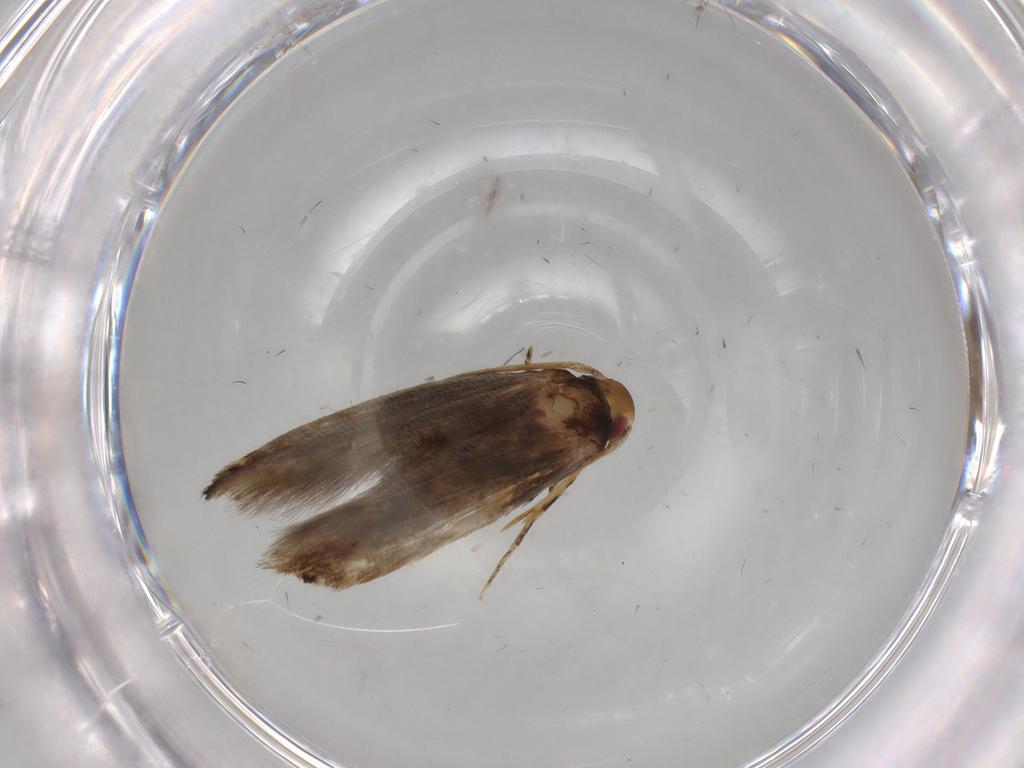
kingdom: Animalia
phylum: Arthropoda
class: Insecta
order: Lepidoptera
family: Momphidae
